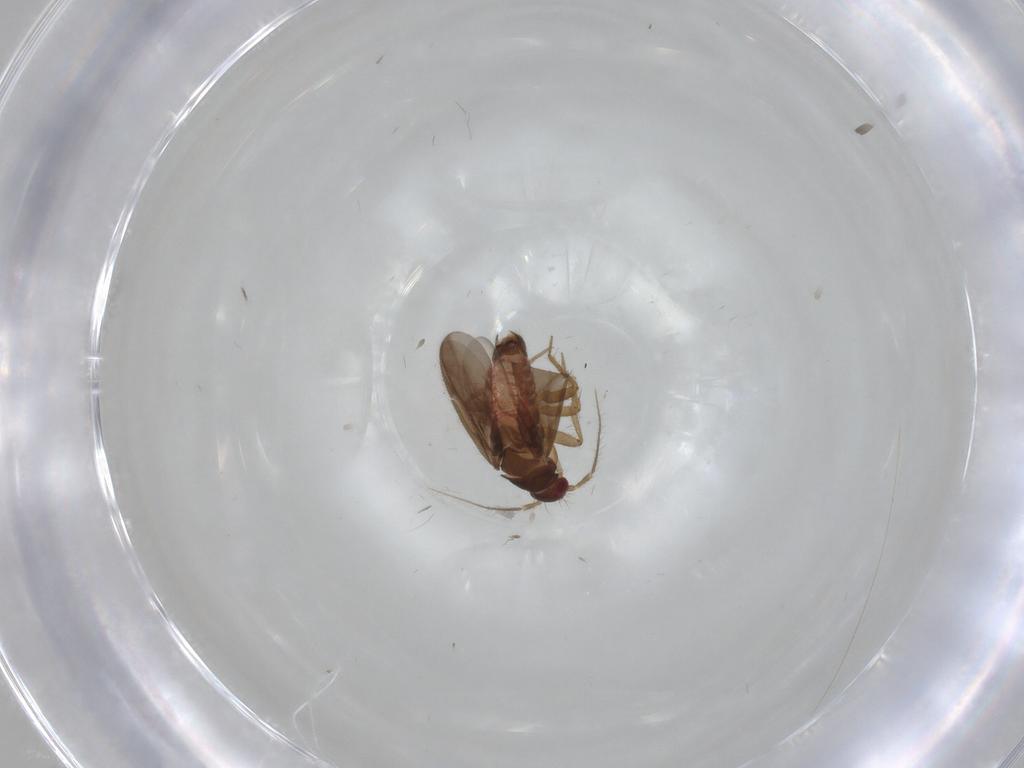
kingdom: Animalia
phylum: Arthropoda
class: Insecta
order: Hemiptera
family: Ceratocombidae
